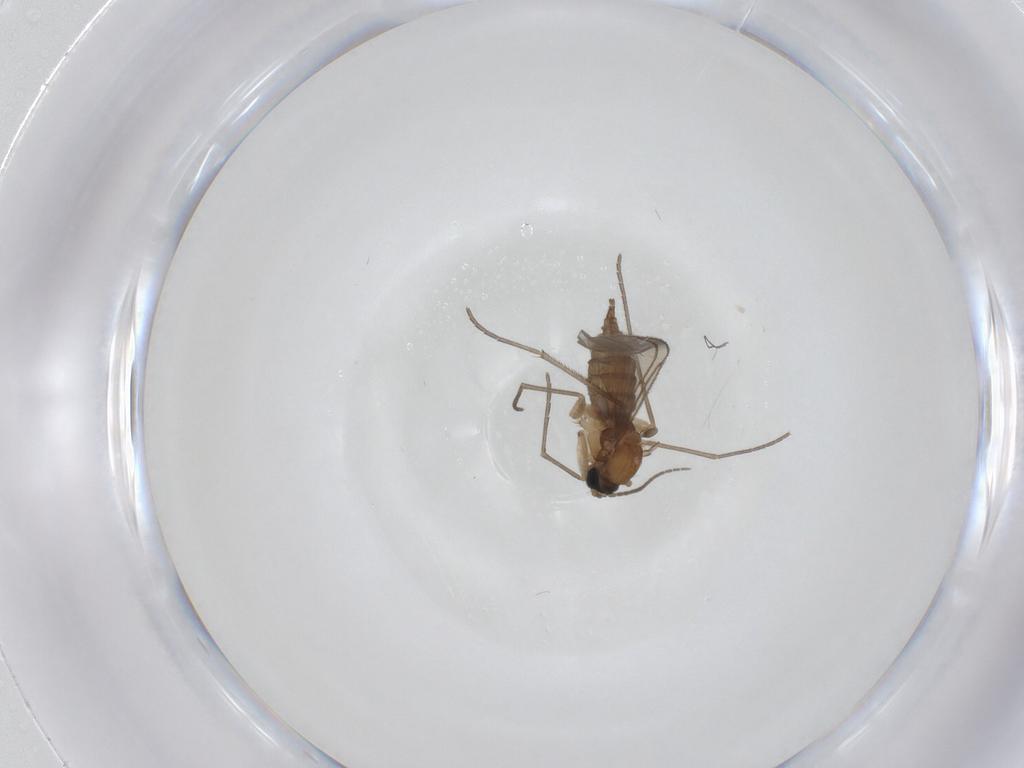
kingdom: Animalia
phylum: Arthropoda
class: Insecta
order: Diptera
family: Sciaridae
